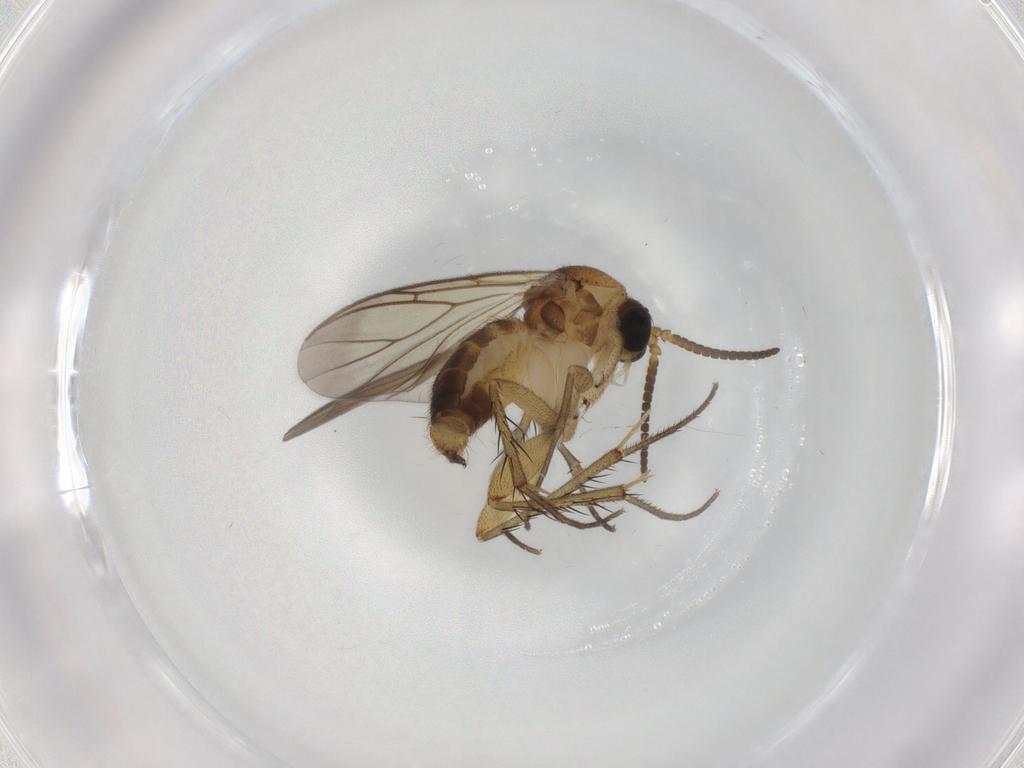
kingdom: Animalia
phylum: Arthropoda
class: Insecta
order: Diptera
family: Mycetophilidae
